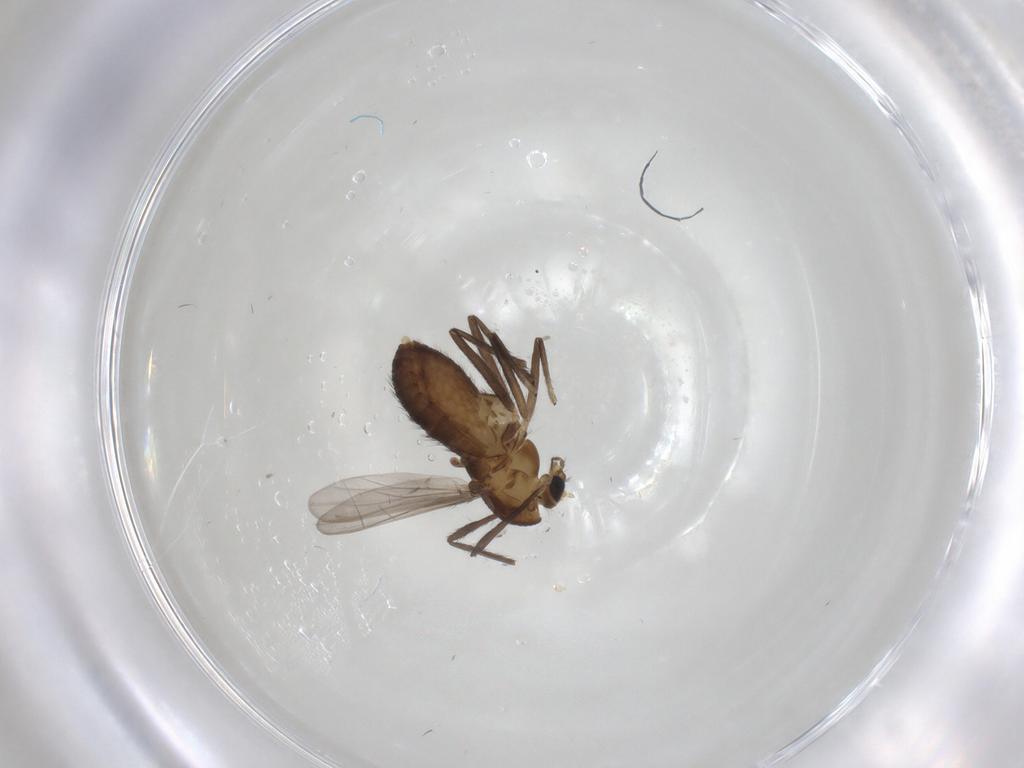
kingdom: Animalia
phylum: Arthropoda
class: Insecta
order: Diptera
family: Chironomidae
